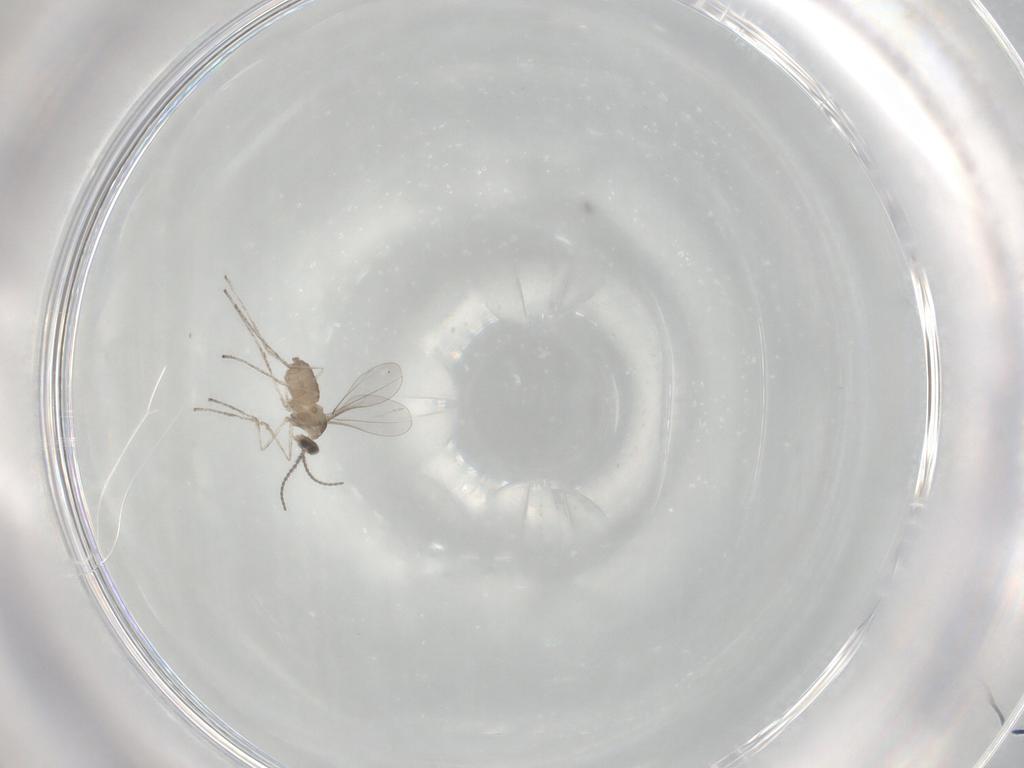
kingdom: Animalia
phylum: Arthropoda
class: Insecta
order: Diptera
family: Cecidomyiidae
